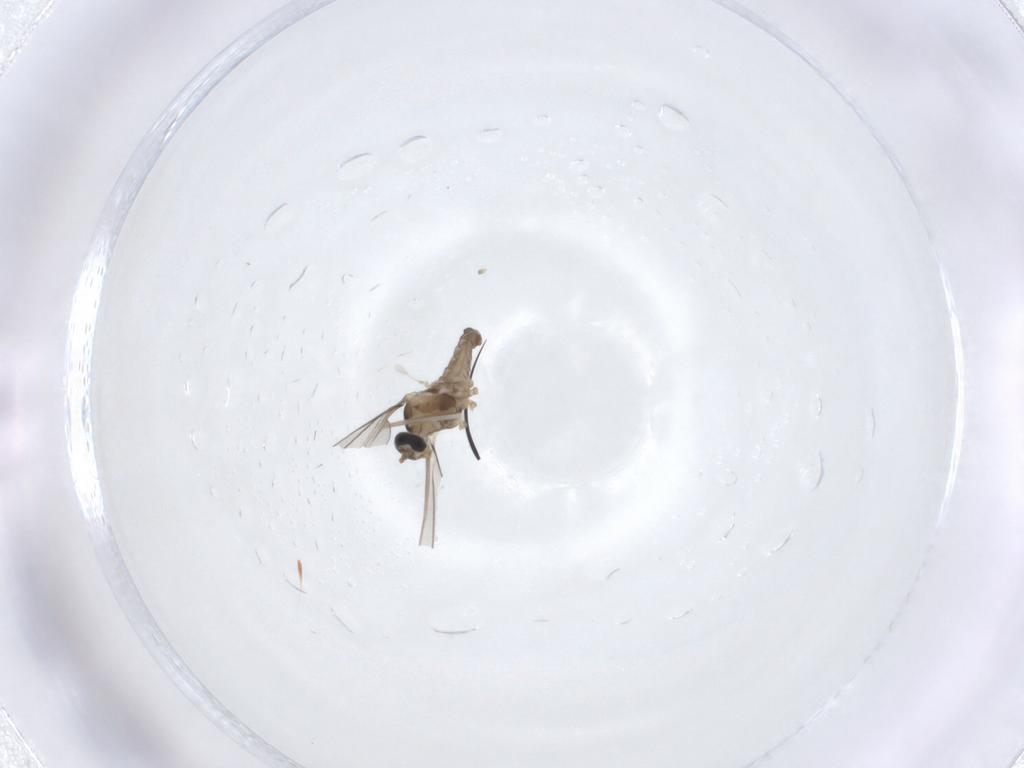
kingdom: Animalia
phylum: Arthropoda
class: Insecta
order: Diptera
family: Cecidomyiidae
